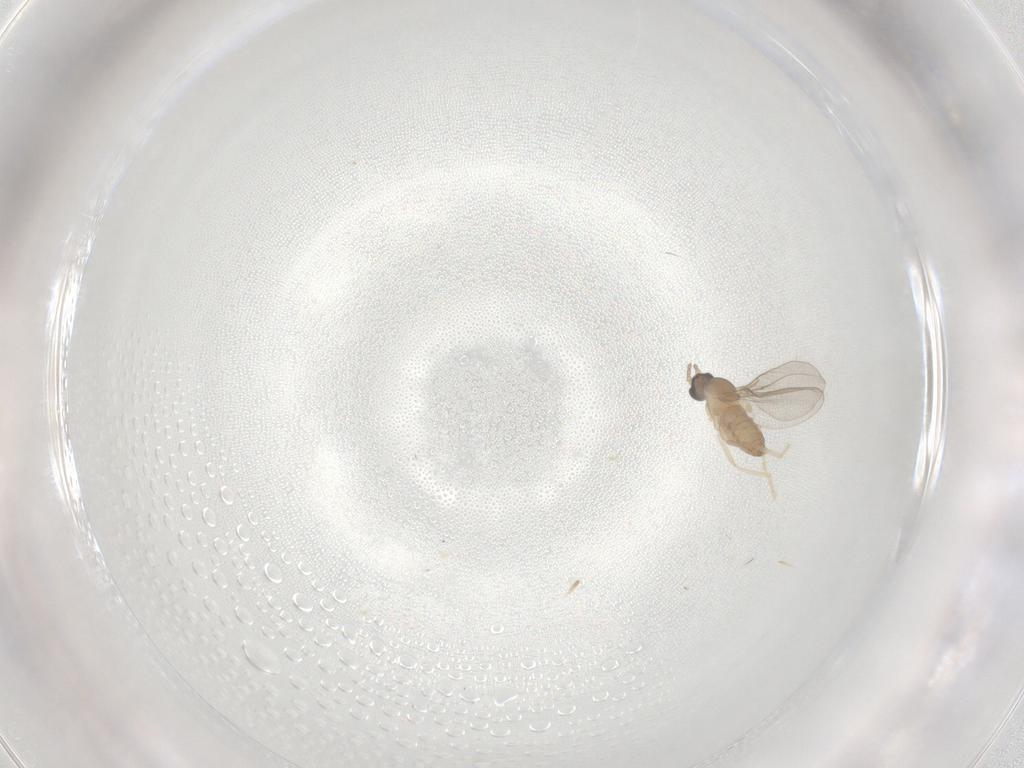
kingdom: Animalia
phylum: Arthropoda
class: Insecta
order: Diptera
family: Cecidomyiidae
